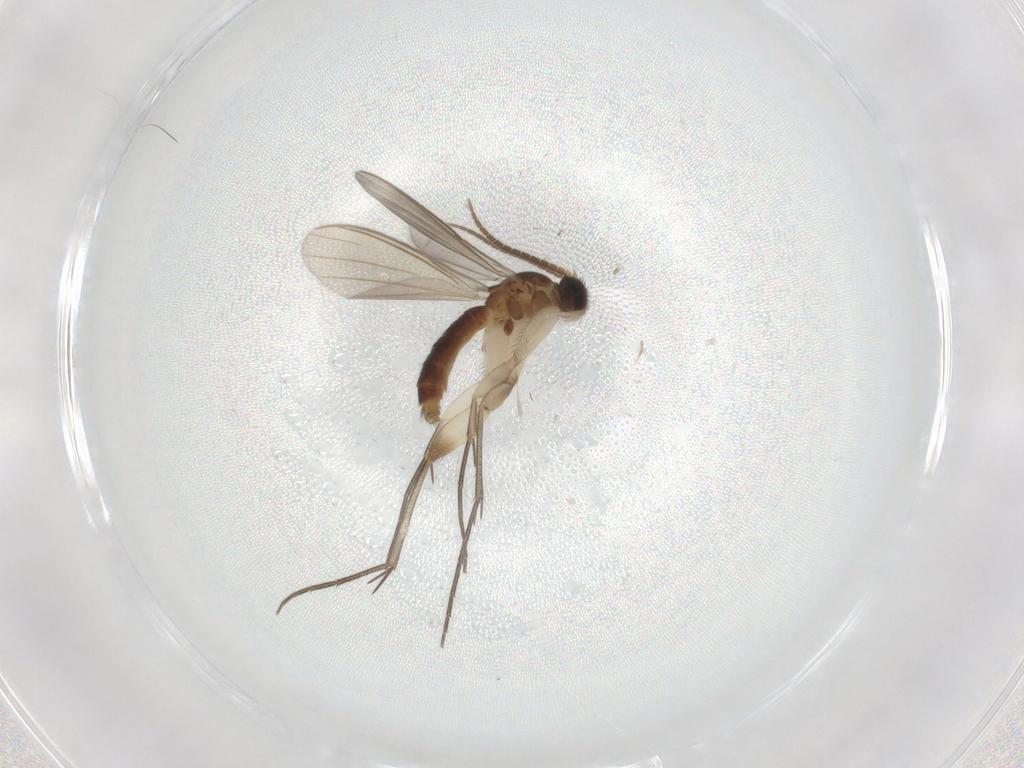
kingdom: Animalia
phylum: Arthropoda
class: Insecta
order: Diptera
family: Mycetophilidae
